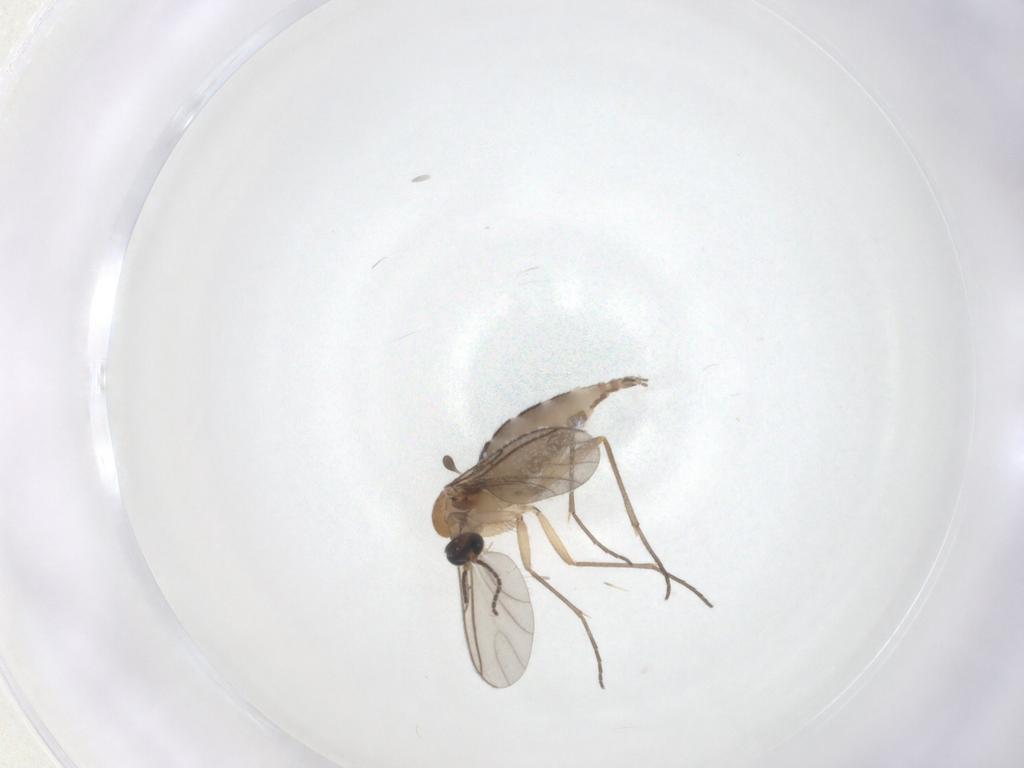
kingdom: Animalia
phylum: Arthropoda
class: Insecta
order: Diptera
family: Sciaridae
